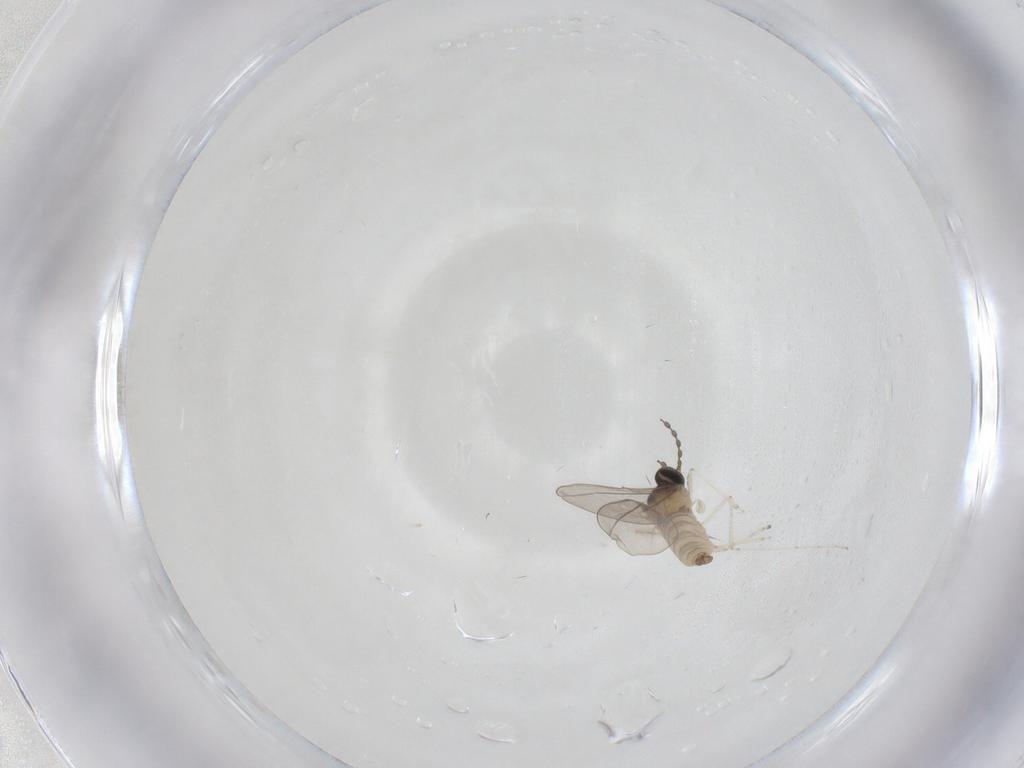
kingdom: Animalia
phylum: Arthropoda
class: Insecta
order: Diptera
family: Cecidomyiidae
